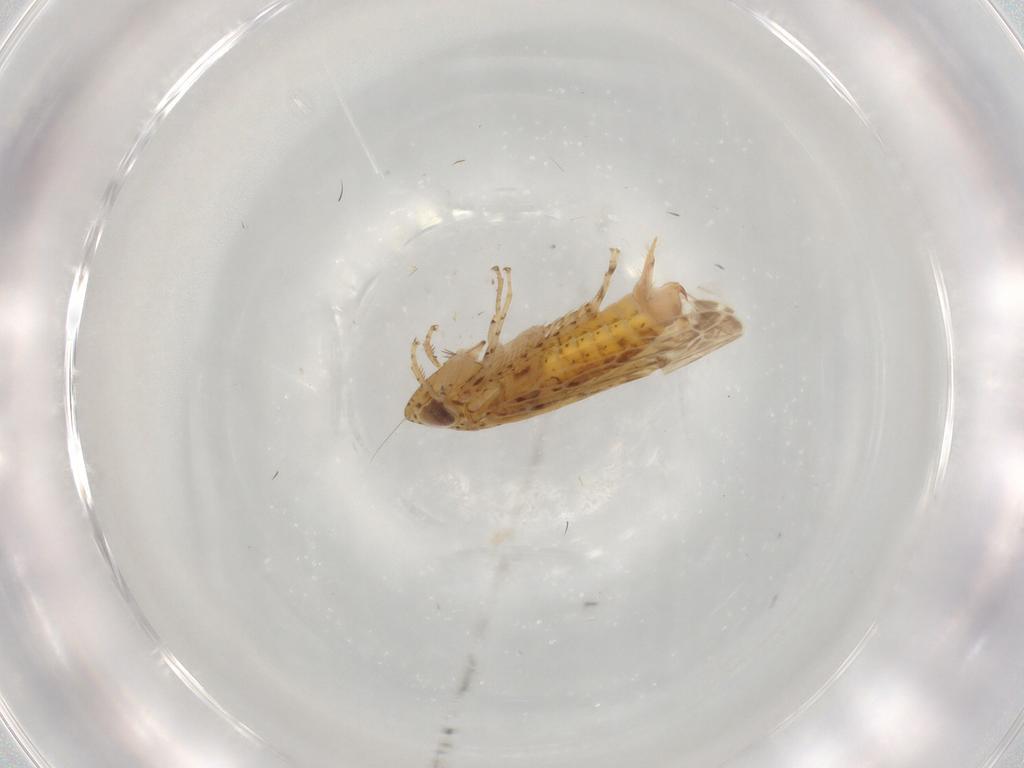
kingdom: Animalia
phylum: Arthropoda
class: Insecta
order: Hemiptera
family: Cicadellidae
